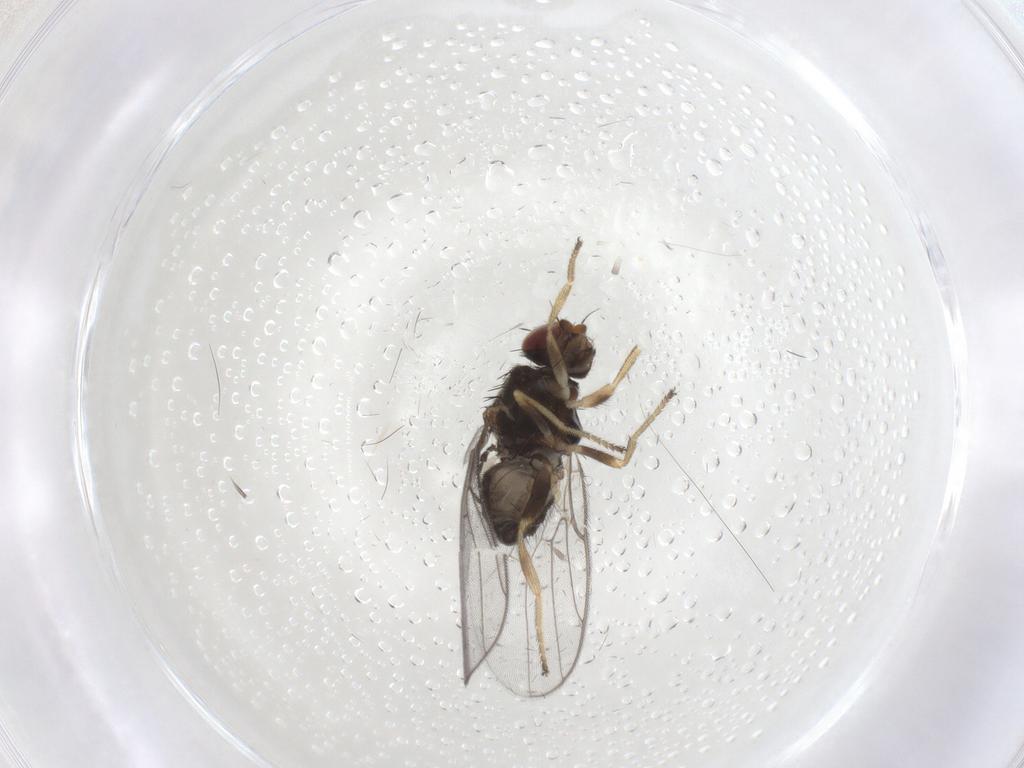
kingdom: Animalia
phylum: Arthropoda
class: Insecta
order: Diptera
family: Chloropidae
